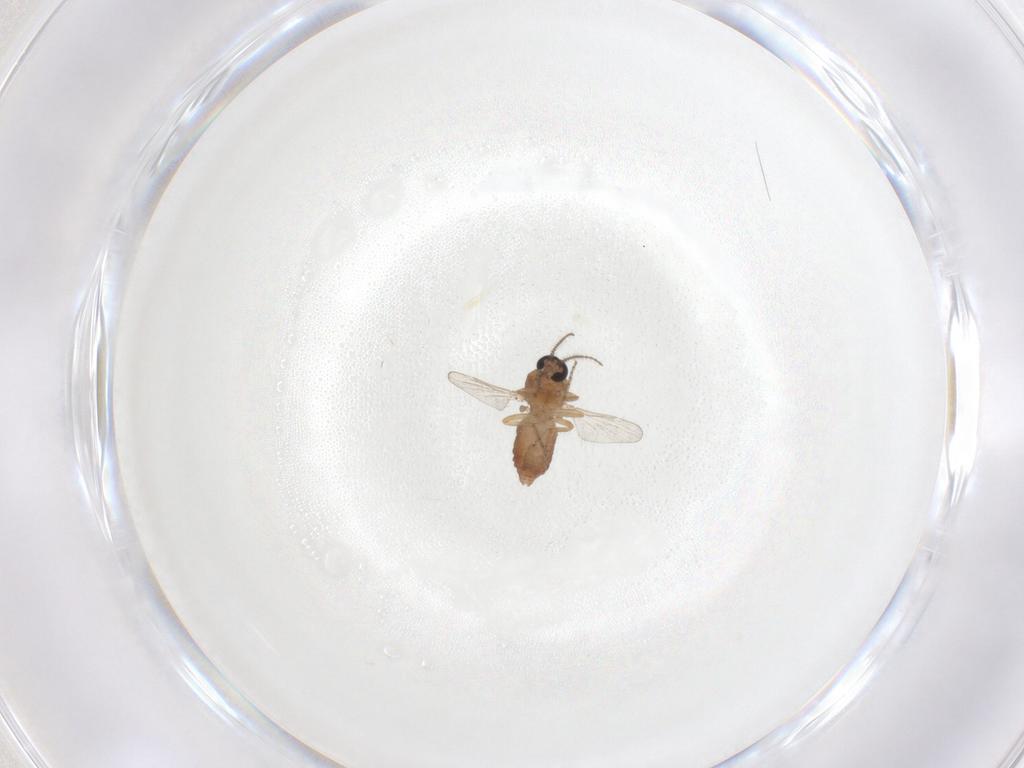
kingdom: Animalia
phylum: Arthropoda
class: Insecta
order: Diptera
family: Ceratopogonidae
